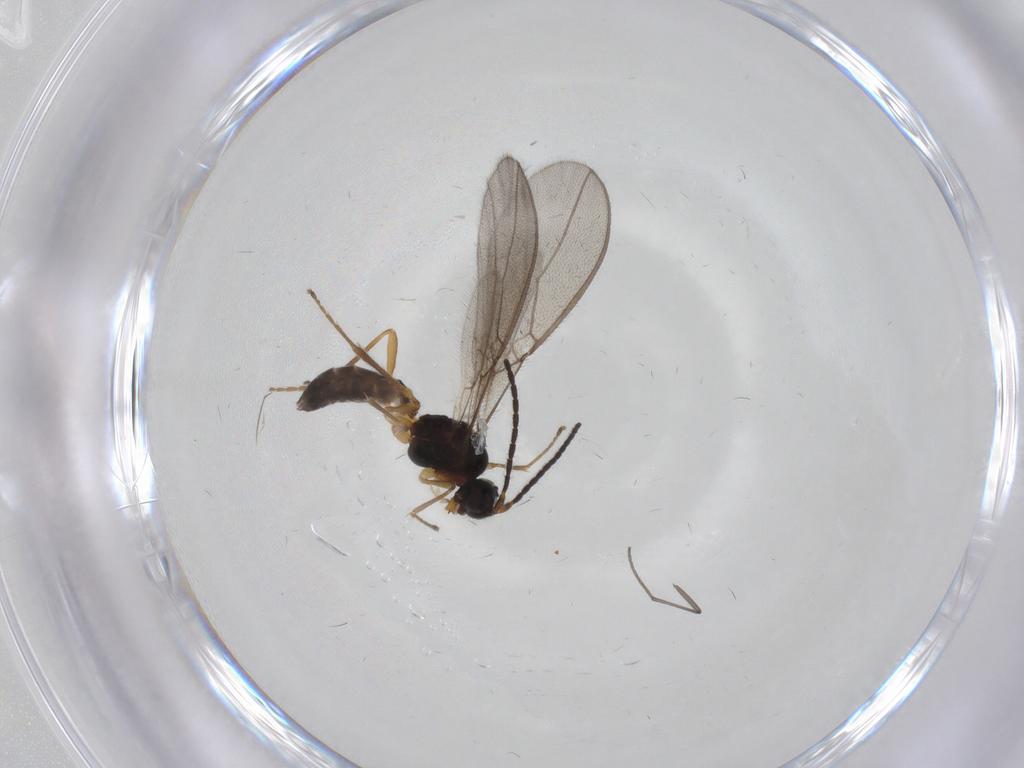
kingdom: Animalia
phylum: Arthropoda
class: Insecta
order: Hymenoptera
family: Braconidae
